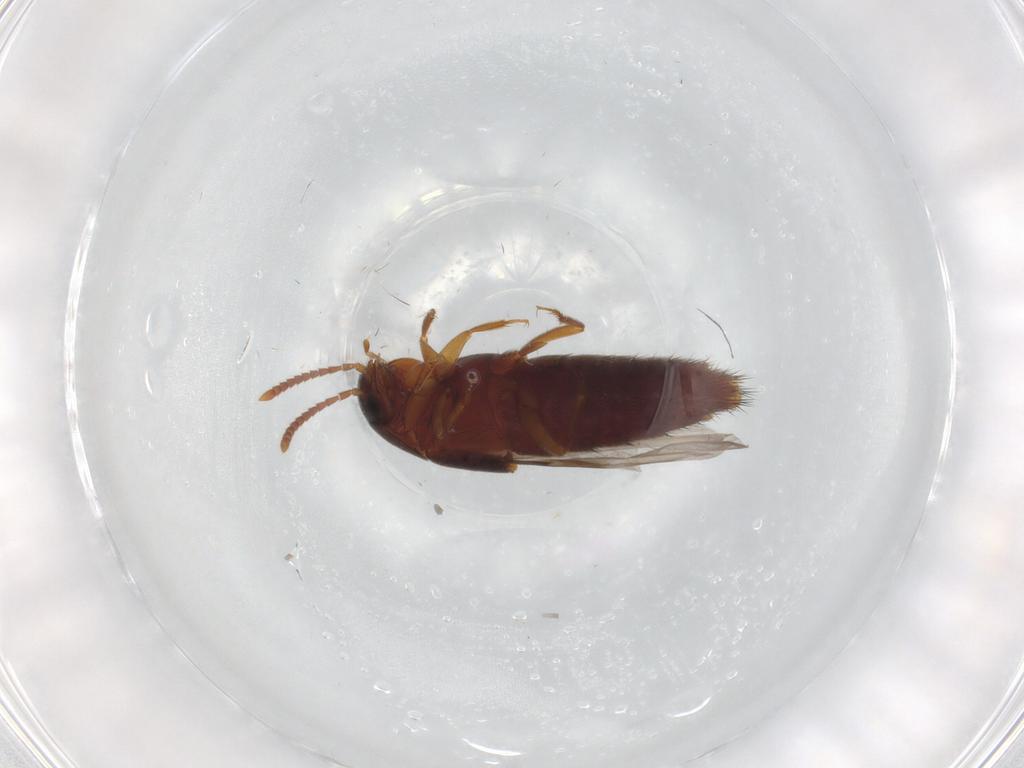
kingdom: Animalia
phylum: Arthropoda
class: Insecta
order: Coleoptera
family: Staphylinidae
